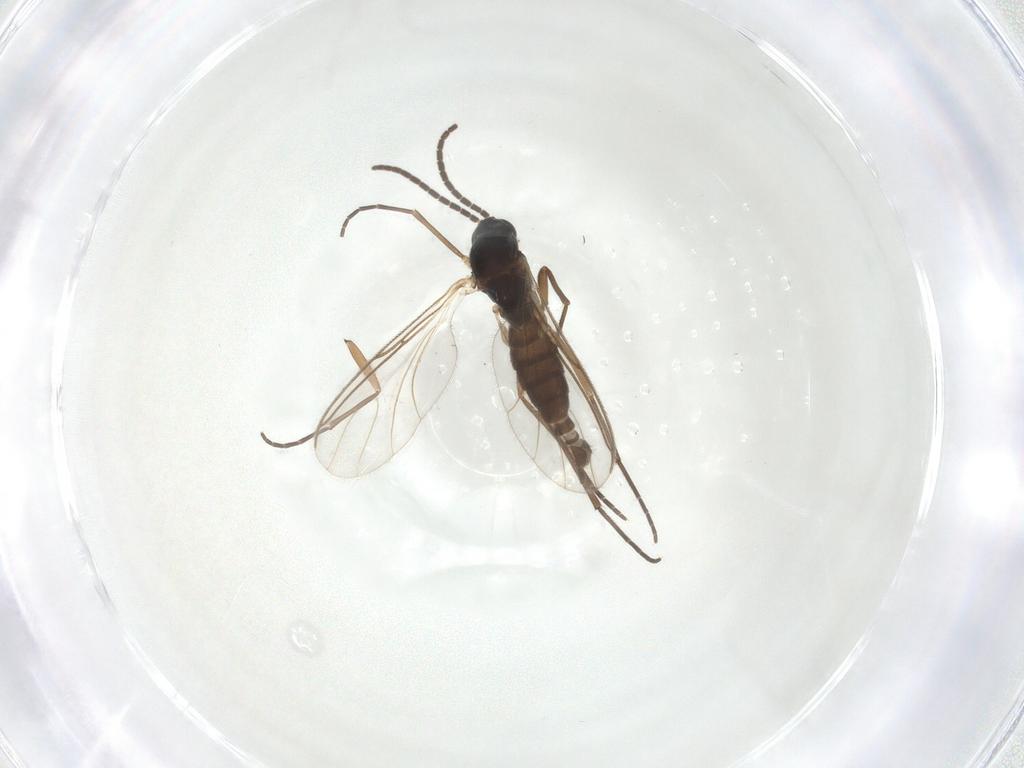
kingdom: Animalia
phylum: Arthropoda
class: Insecta
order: Diptera
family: Sciaridae
